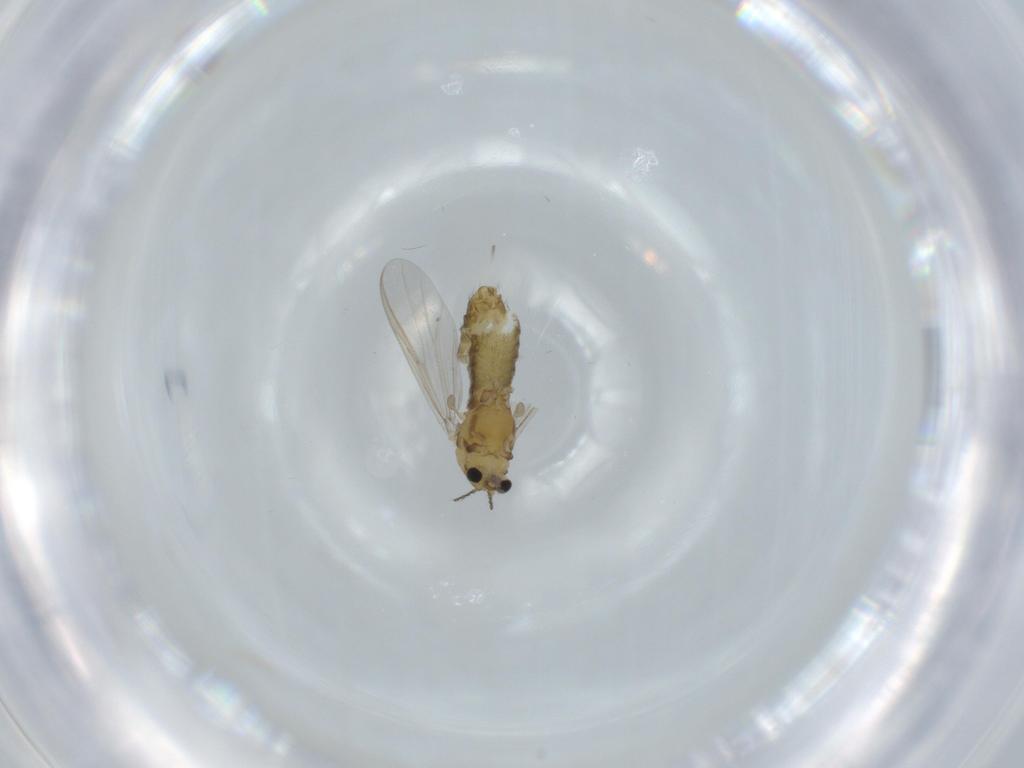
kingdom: Animalia
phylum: Arthropoda
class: Insecta
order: Diptera
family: Chironomidae
